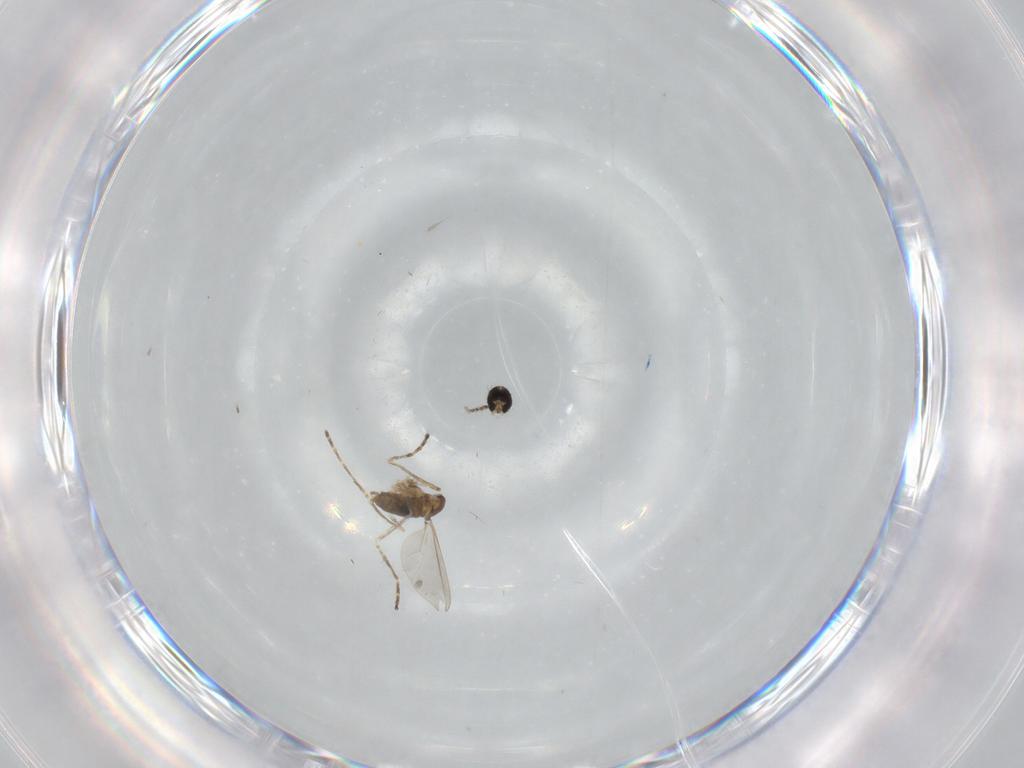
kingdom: Animalia
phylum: Arthropoda
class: Insecta
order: Diptera
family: Cecidomyiidae
